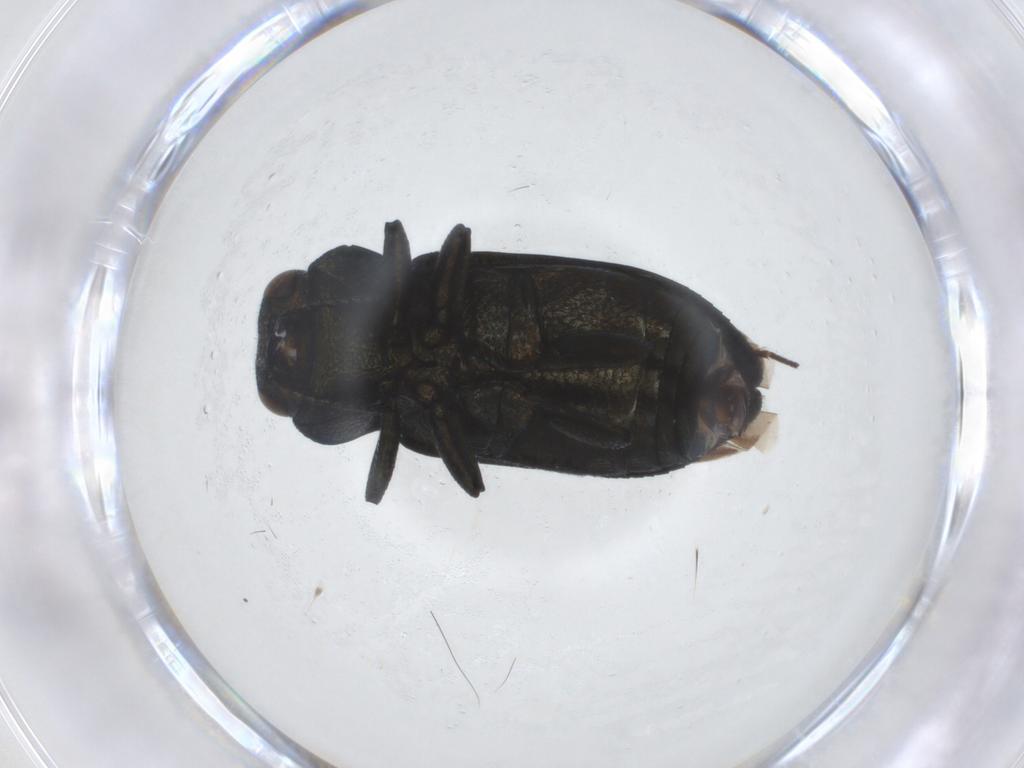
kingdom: Animalia
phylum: Arthropoda
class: Insecta
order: Coleoptera
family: Buprestidae
